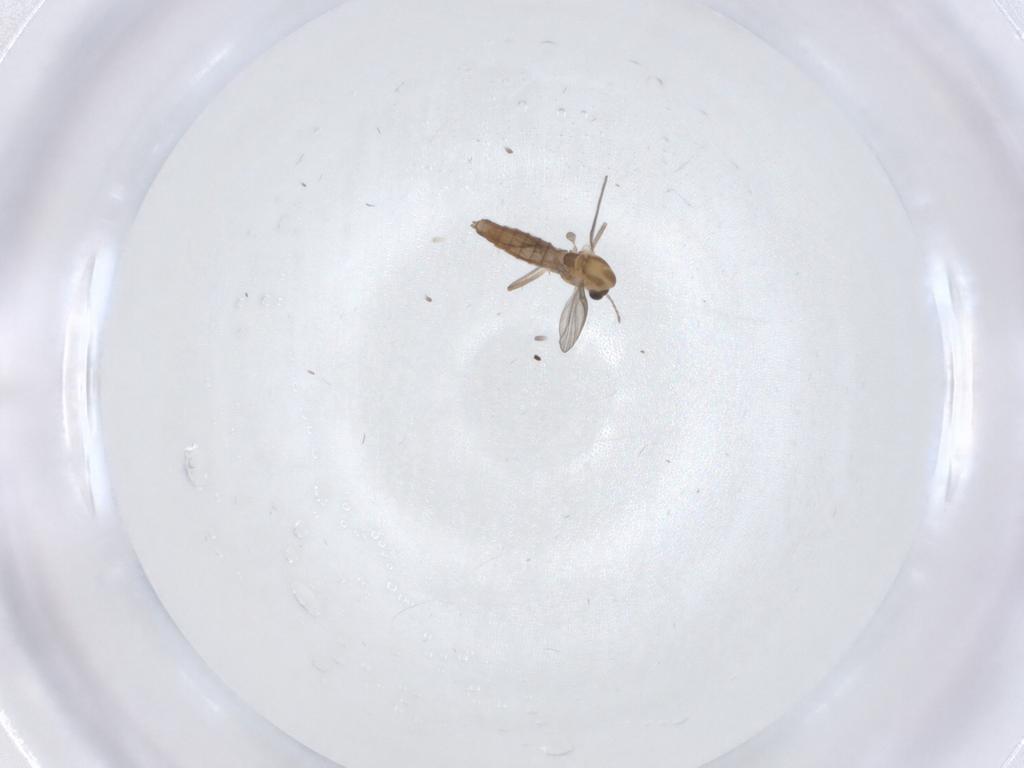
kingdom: Animalia
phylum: Arthropoda
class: Insecta
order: Diptera
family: Ceratopogonidae
